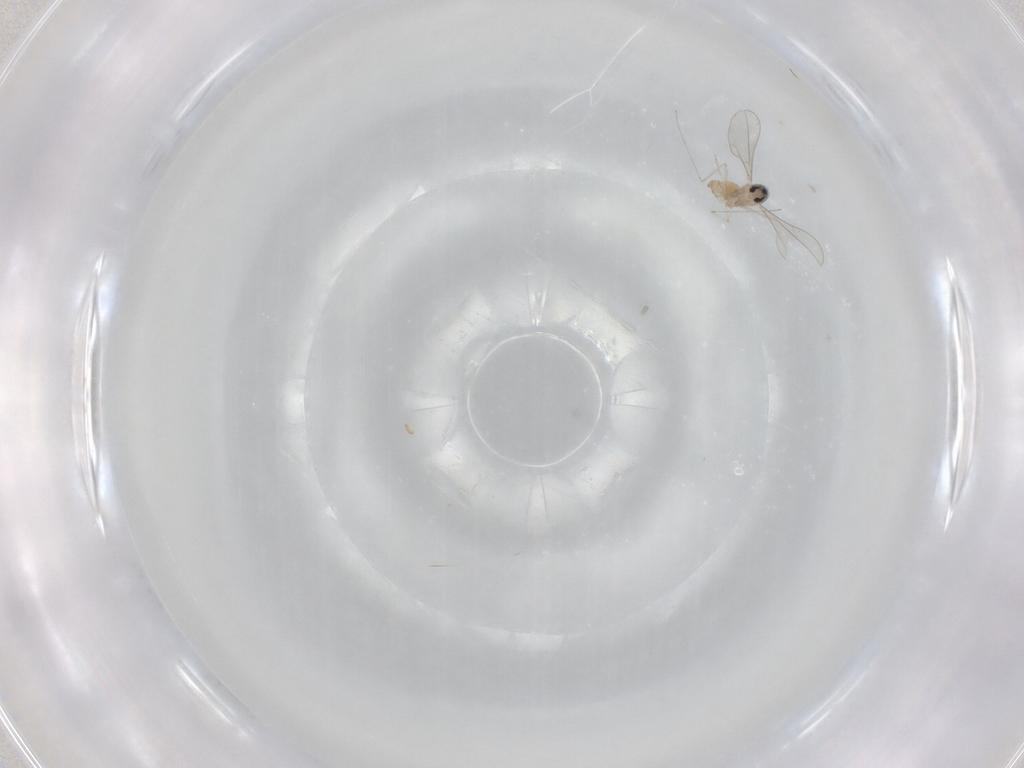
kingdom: Animalia
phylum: Arthropoda
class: Insecta
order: Diptera
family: Cecidomyiidae
